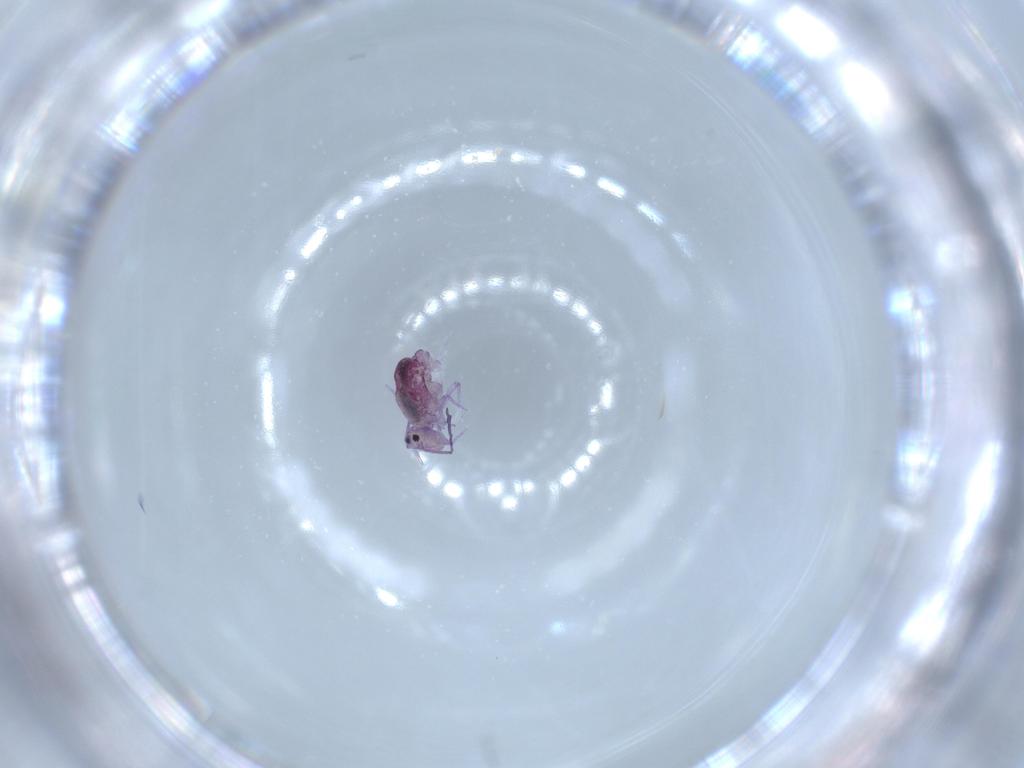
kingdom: Animalia
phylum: Arthropoda
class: Collembola
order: Symphypleona
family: Dicyrtomidae
